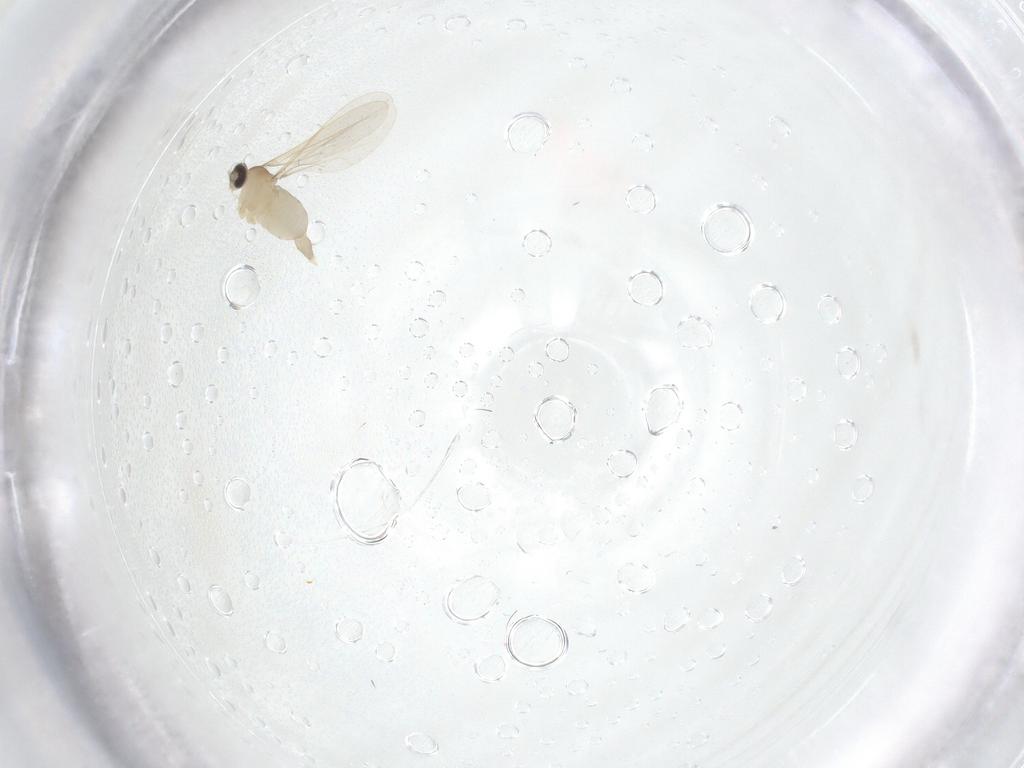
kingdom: Animalia
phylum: Arthropoda
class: Insecta
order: Diptera
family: Cecidomyiidae
